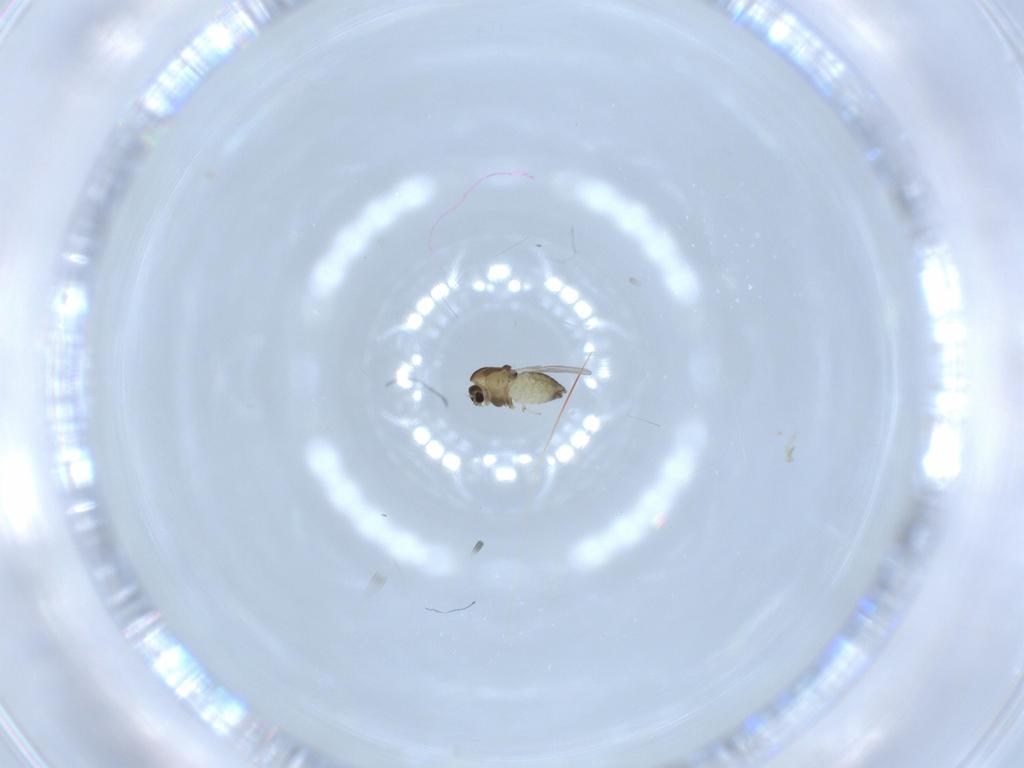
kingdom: Animalia
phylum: Arthropoda
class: Insecta
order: Diptera
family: Chironomidae
